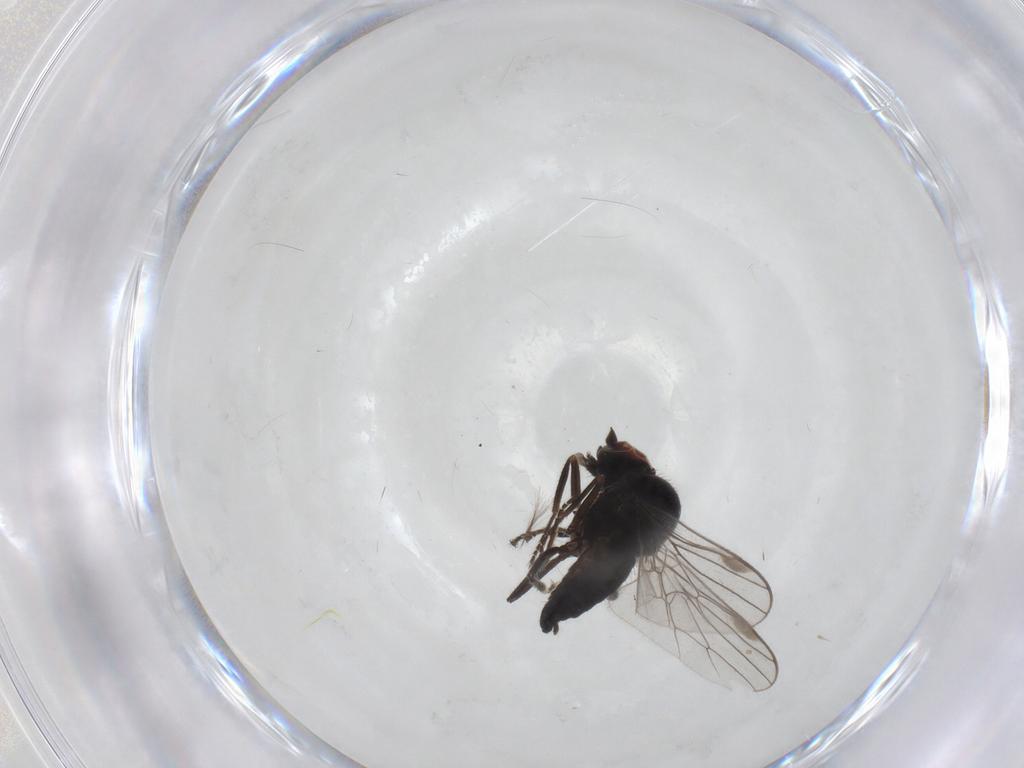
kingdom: Animalia
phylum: Arthropoda
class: Insecta
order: Diptera
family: Hybotidae
